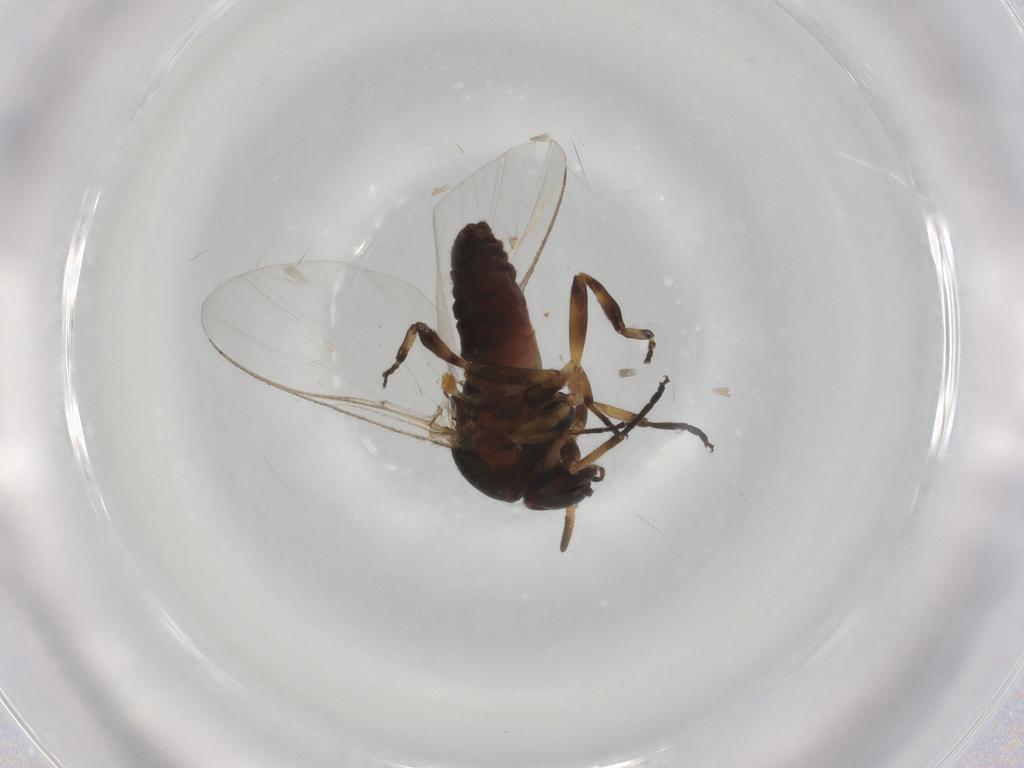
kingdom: Animalia
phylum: Arthropoda
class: Insecta
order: Diptera
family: Mycetophilidae
